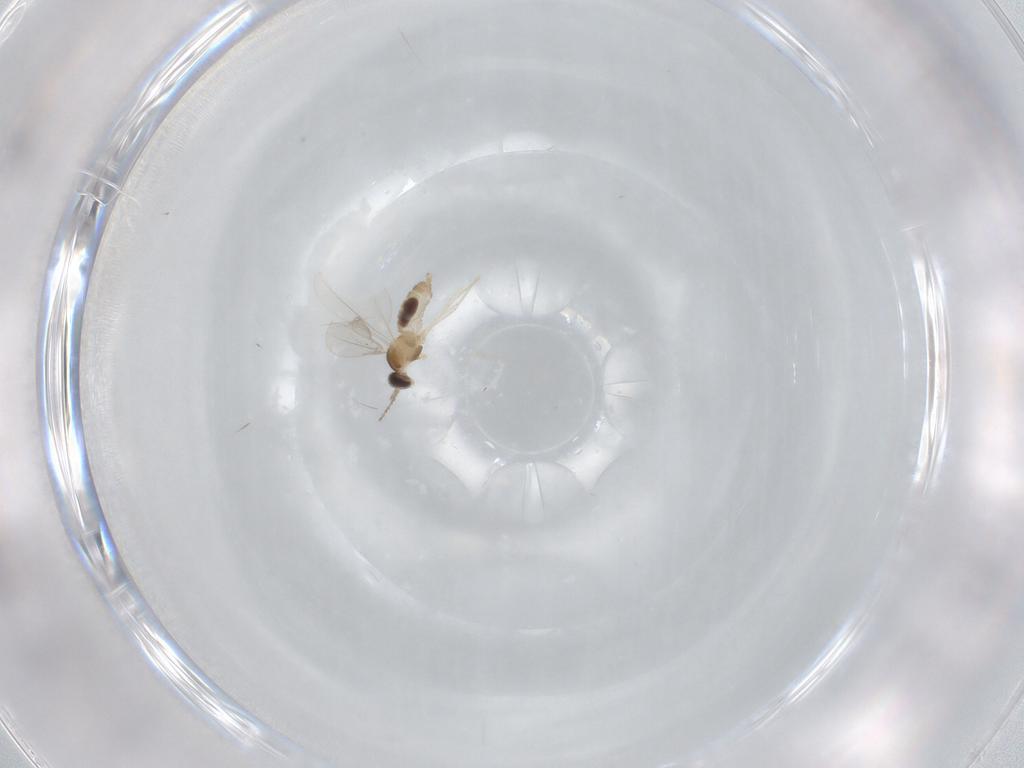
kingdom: Animalia
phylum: Arthropoda
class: Insecta
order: Diptera
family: Cecidomyiidae
